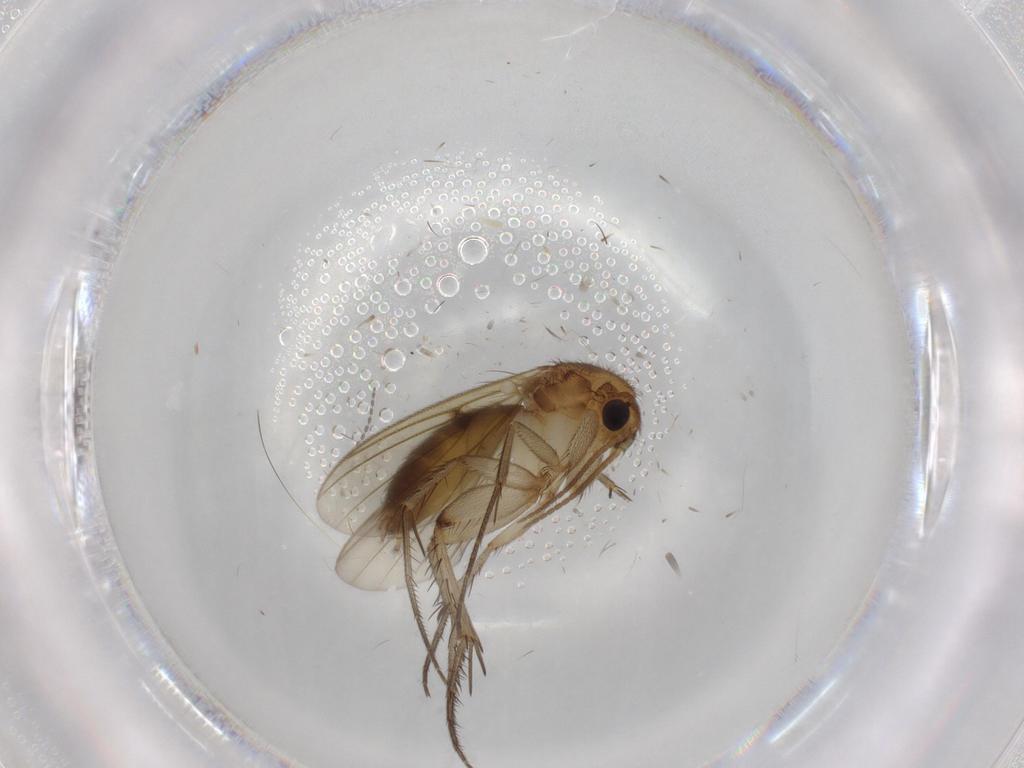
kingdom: Animalia
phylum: Arthropoda
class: Insecta
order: Diptera
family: Mycetophilidae
